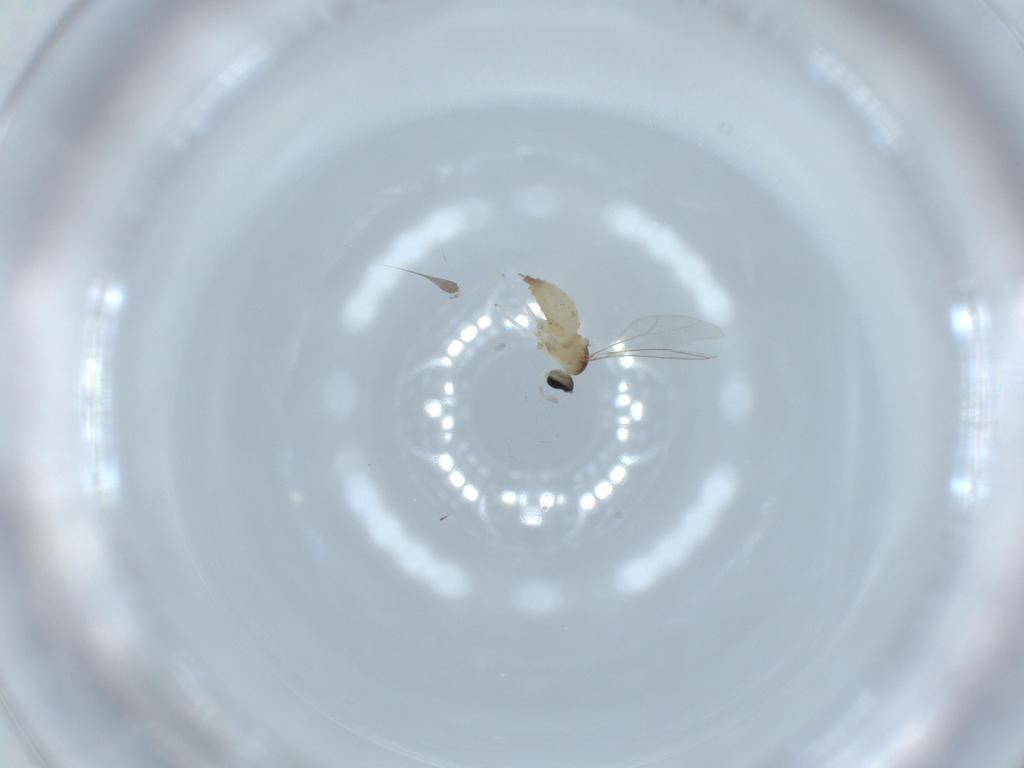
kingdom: Animalia
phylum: Arthropoda
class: Insecta
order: Diptera
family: Cecidomyiidae
